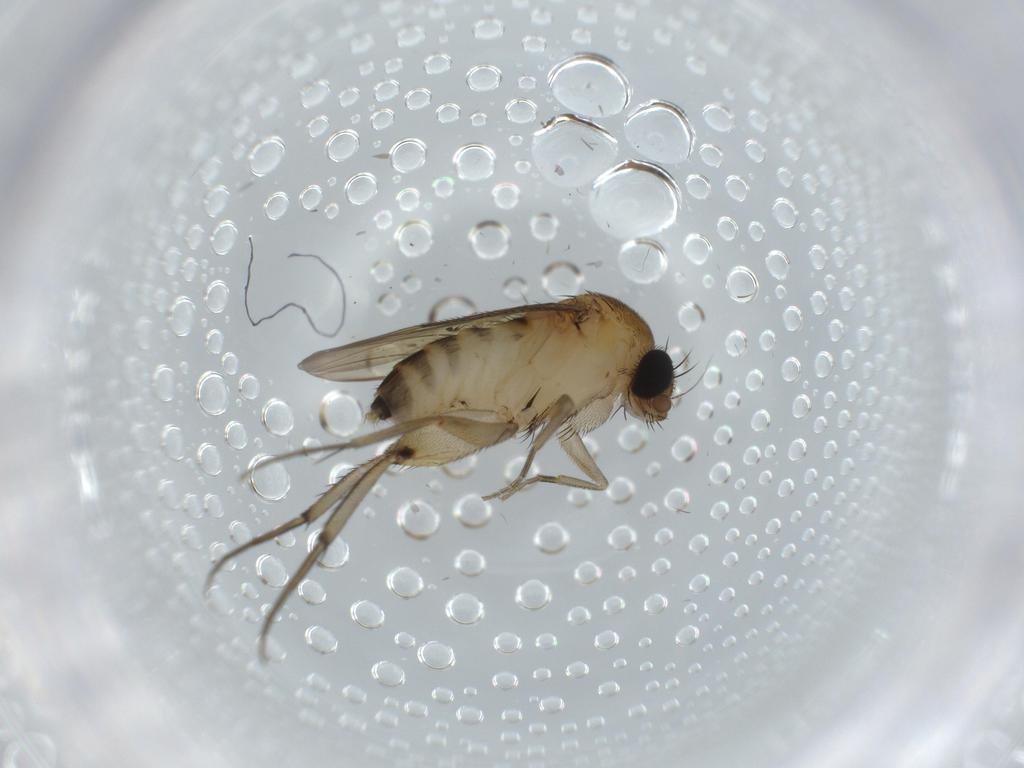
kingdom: Animalia
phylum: Arthropoda
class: Insecta
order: Diptera
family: Phoridae
